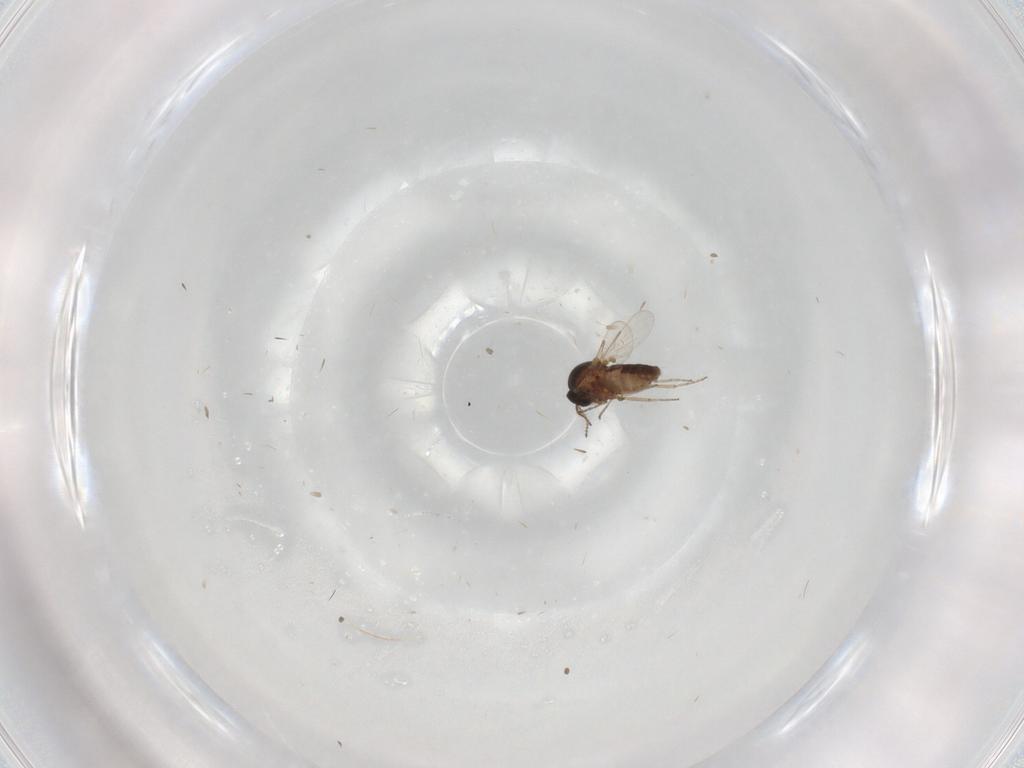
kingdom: Animalia
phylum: Arthropoda
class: Insecta
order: Diptera
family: Ceratopogonidae
